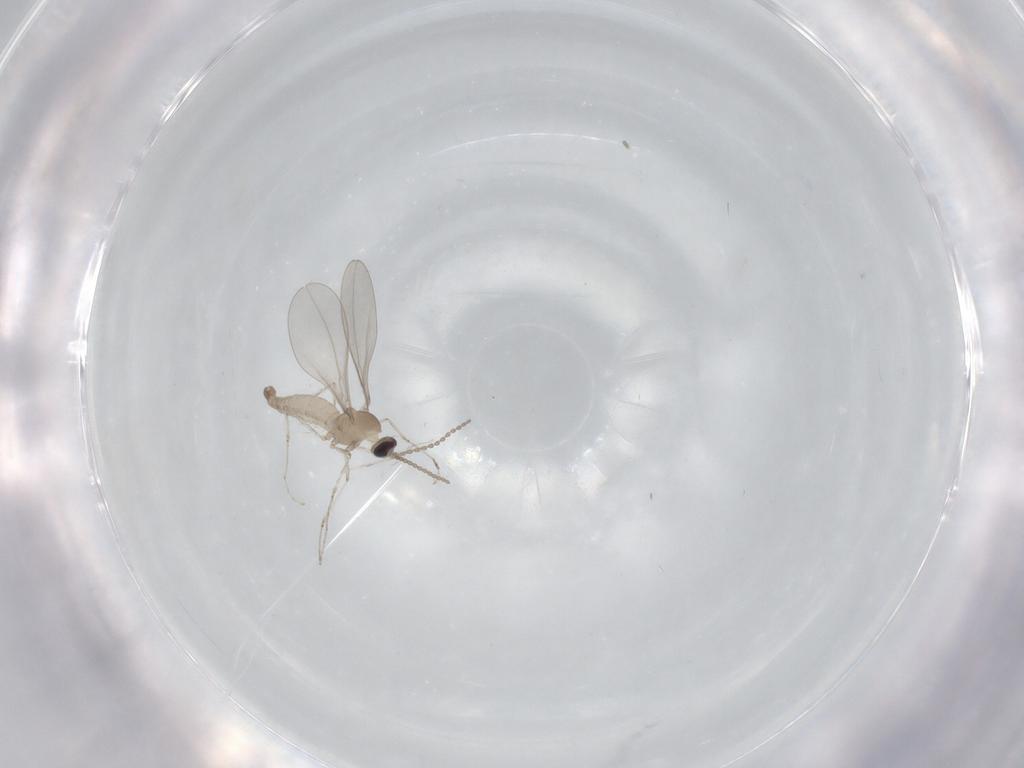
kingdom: Animalia
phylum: Arthropoda
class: Insecta
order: Diptera
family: Cecidomyiidae
